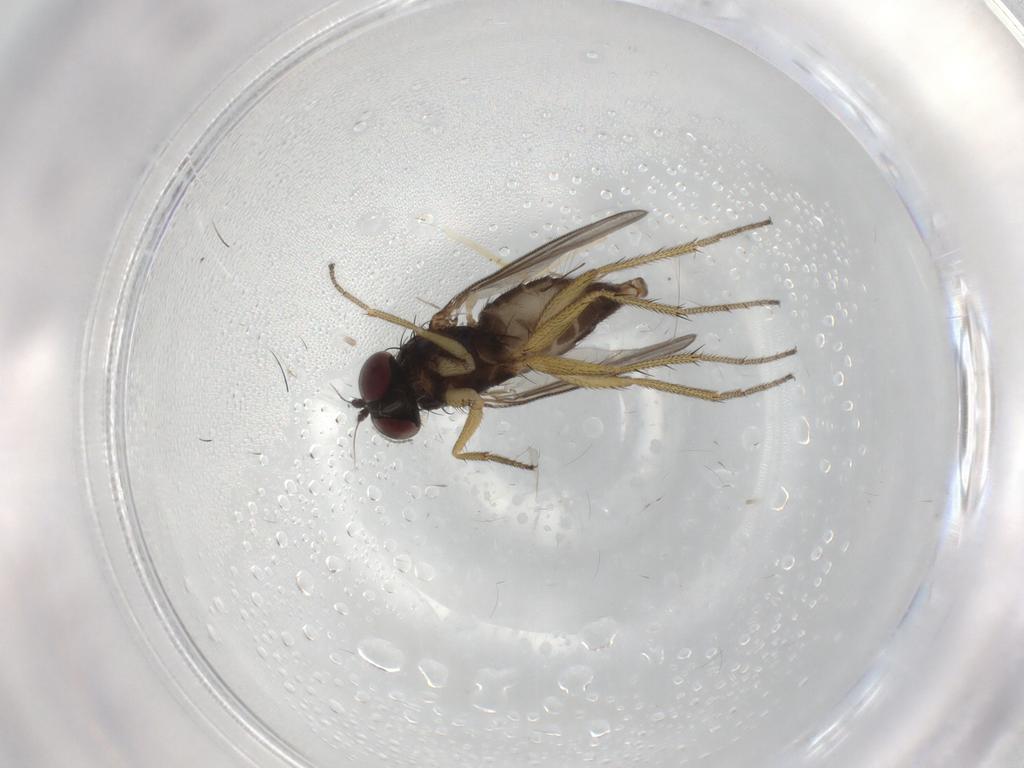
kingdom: Animalia
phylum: Arthropoda
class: Insecta
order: Diptera
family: Chironomidae
